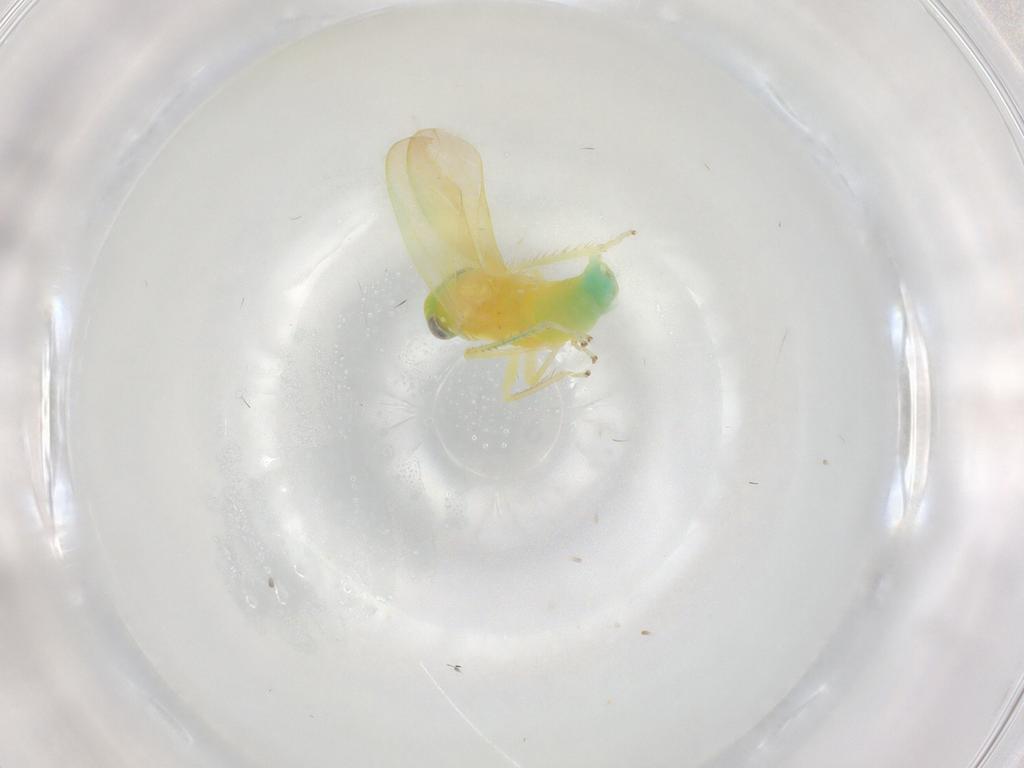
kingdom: Animalia
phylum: Arthropoda
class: Insecta
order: Hemiptera
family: Cicadellidae
